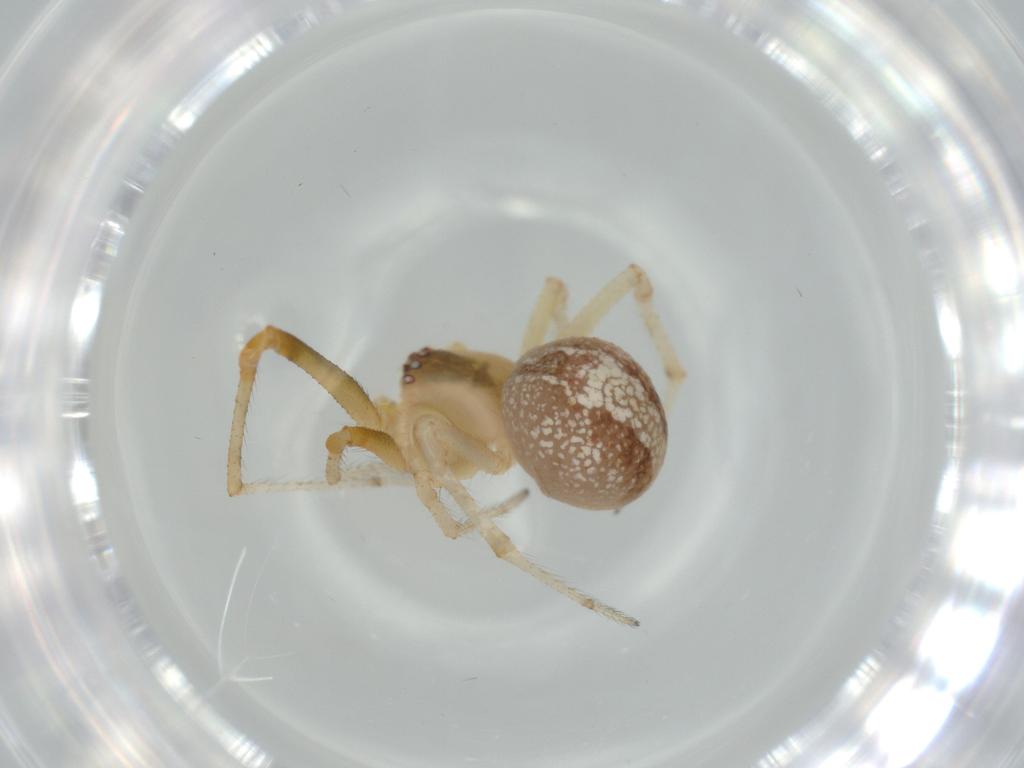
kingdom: Animalia
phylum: Arthropoda
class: Arachnida
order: Araneae
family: Theridiidae
